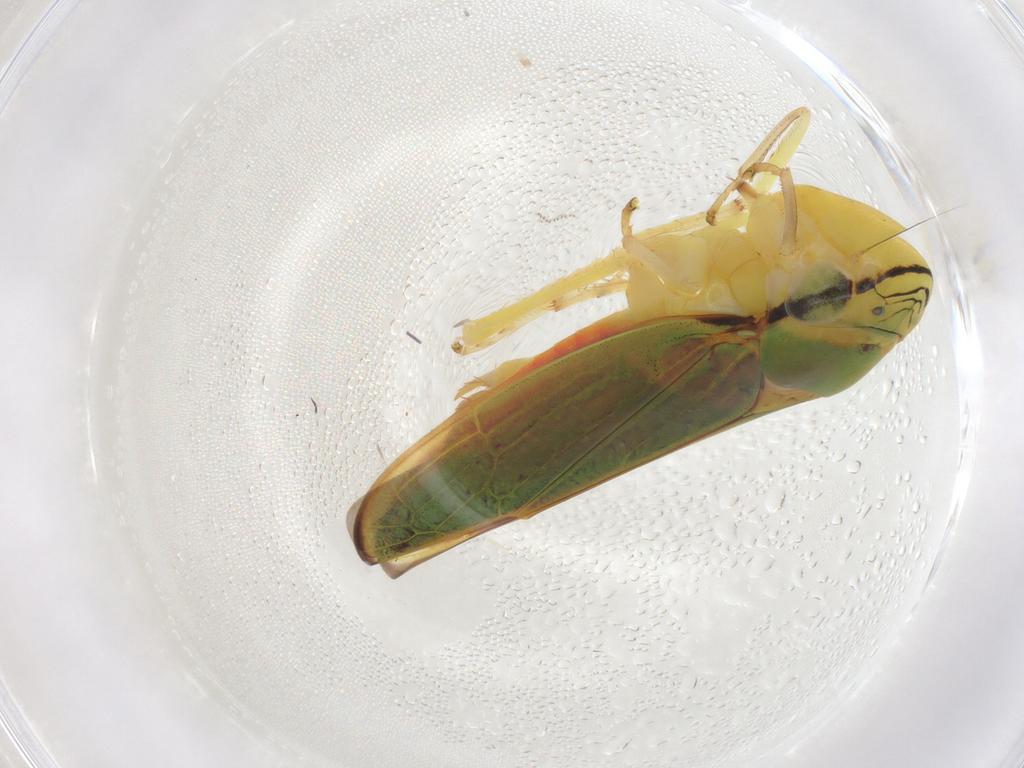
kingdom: Animalia
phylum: Arthropoda
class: Insecta
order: Hemiptera
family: Cicadellidae
